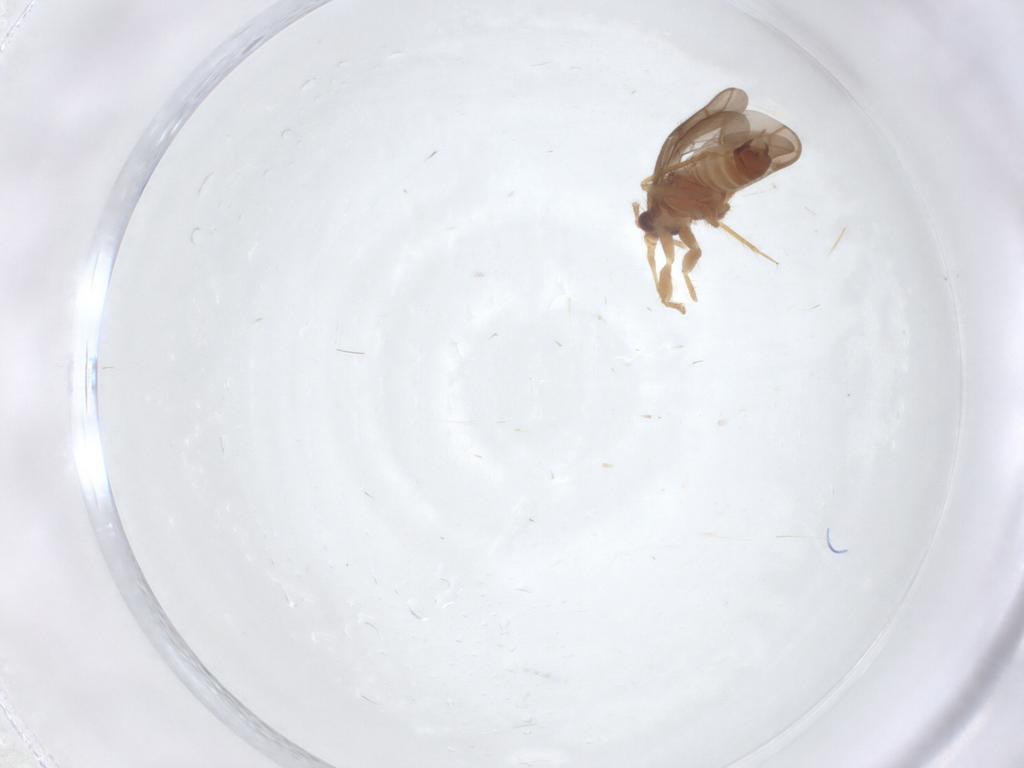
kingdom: Animalia
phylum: Arthropoda
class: Insecta
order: Hemiptera
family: Ceratocombidae
